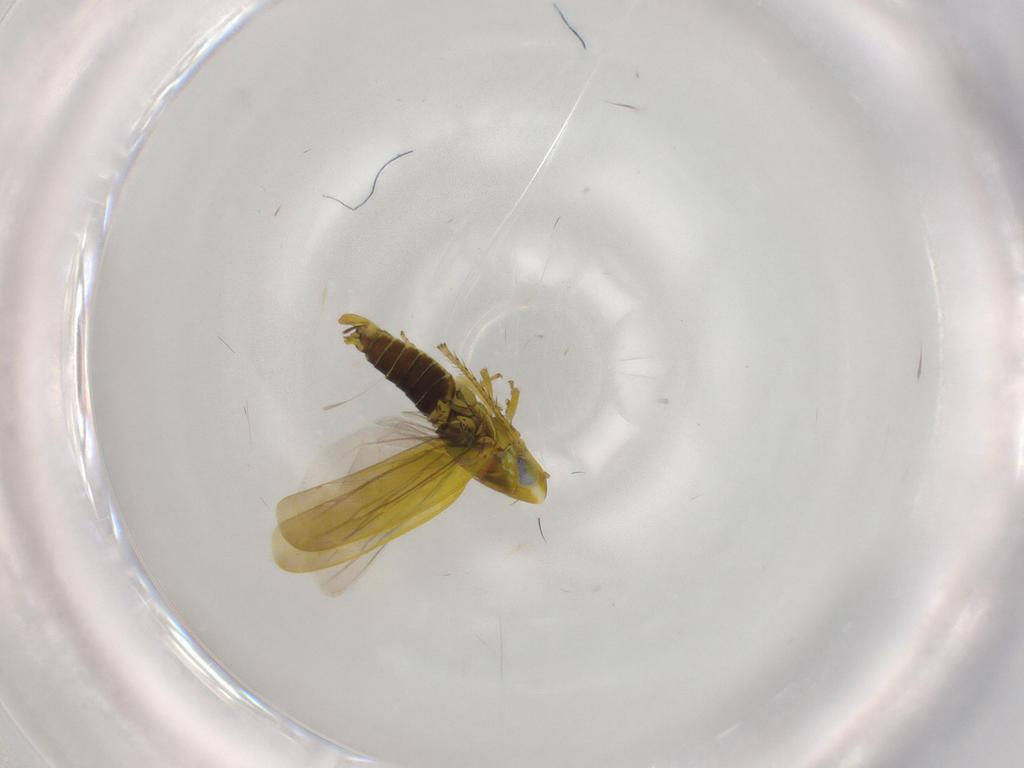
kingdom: Animalia
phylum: Arthropoda
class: Insecta
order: Hemiptera
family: Cicadellidae
